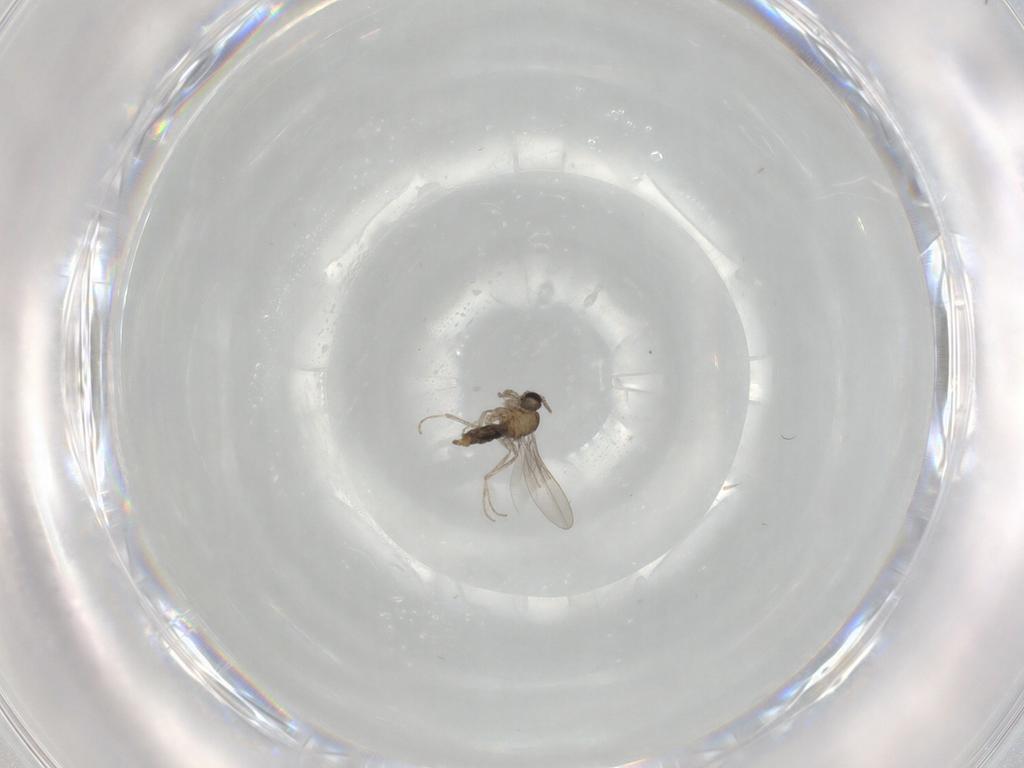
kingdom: Animalia
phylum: Arthropoda
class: Insecta
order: Diptera
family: Cecidomyiidae
